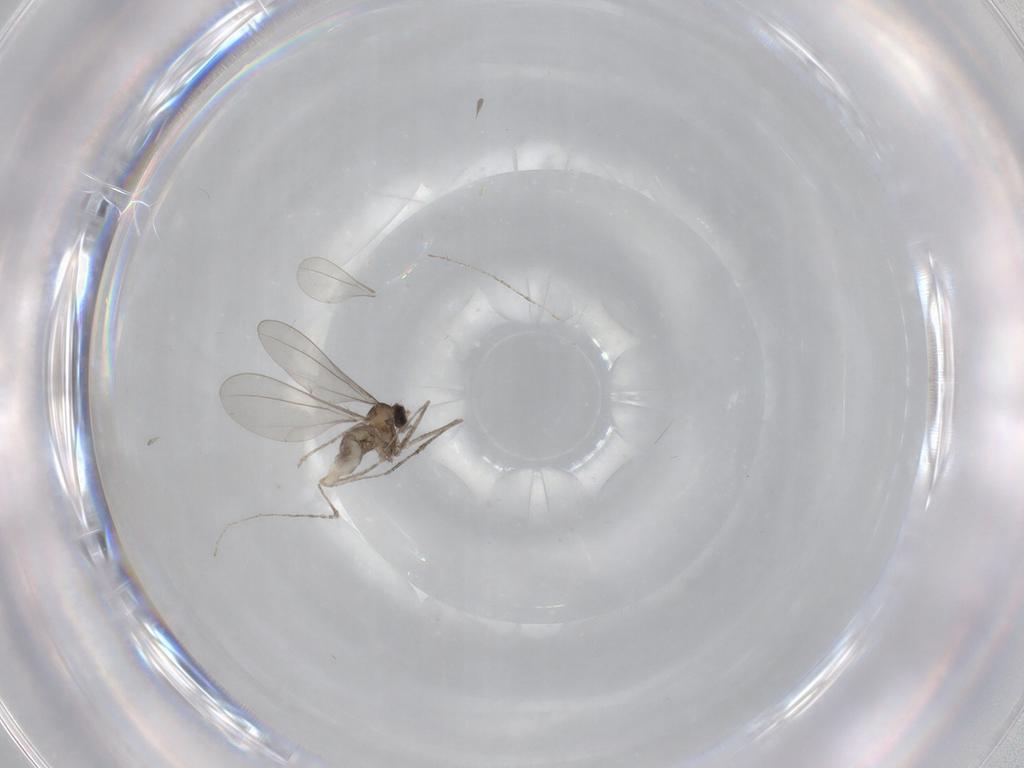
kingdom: Animalia
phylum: Arthropoda
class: Insecta
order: Diptera
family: Cecidomyiidae
